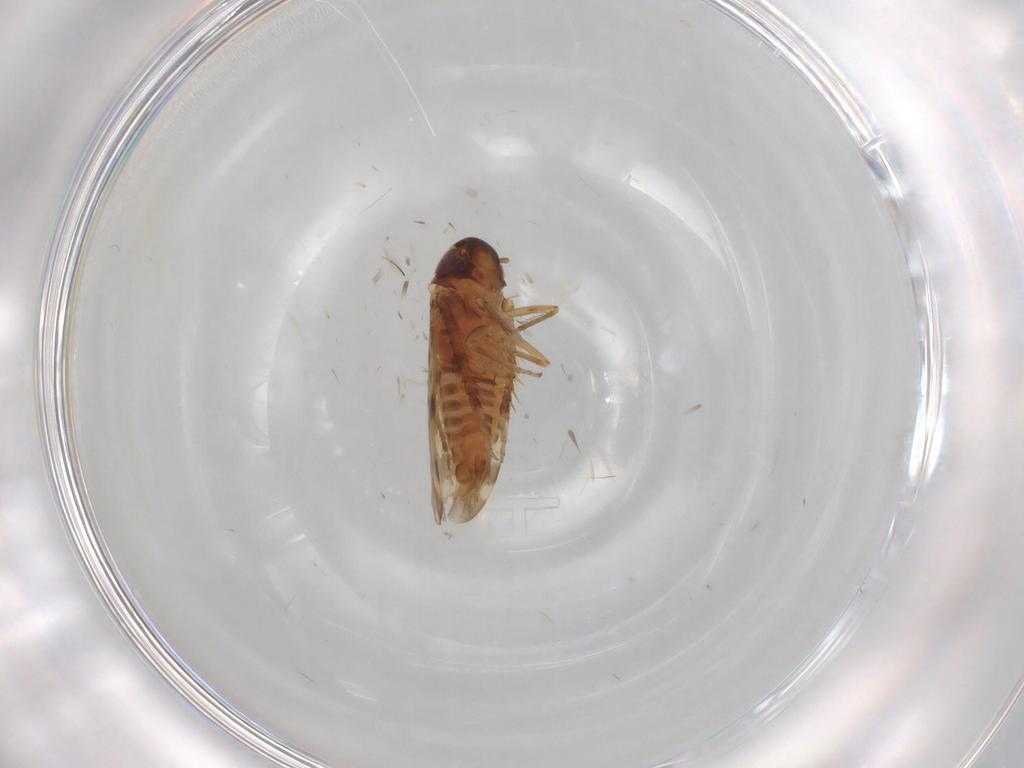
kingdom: Animalia
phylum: Arthropoda
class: Insecta
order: Hemiptera
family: Cicadellidae
